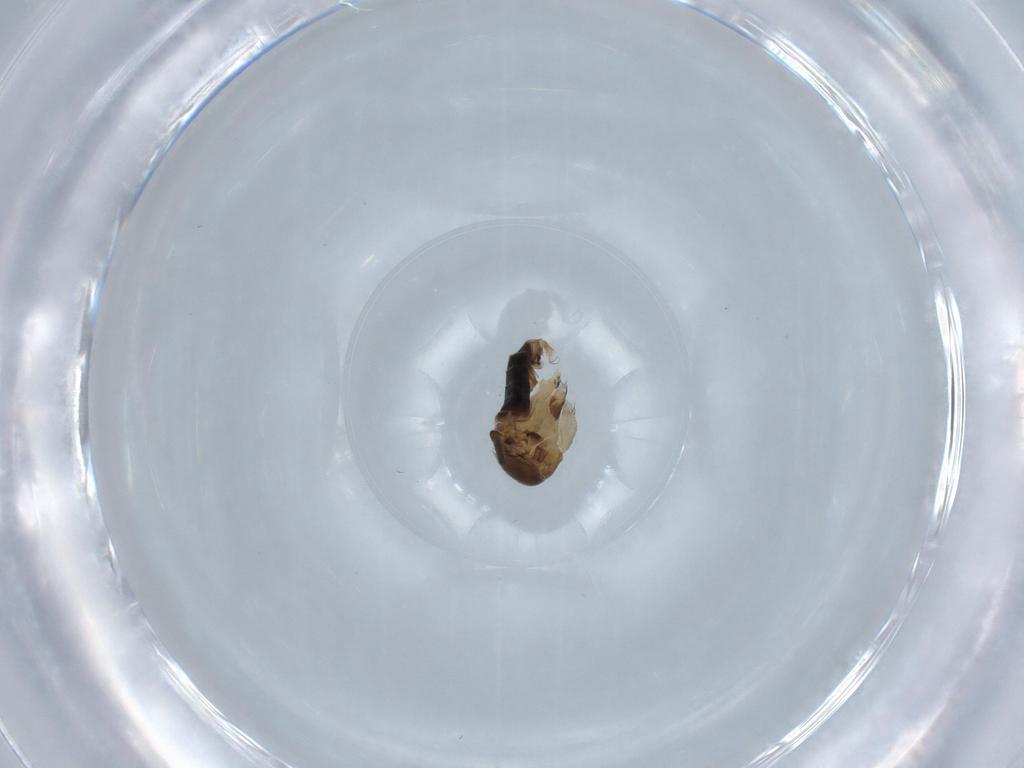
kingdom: Animalia
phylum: Arthropoda
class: Insecta
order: Diptera
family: Phoridae
